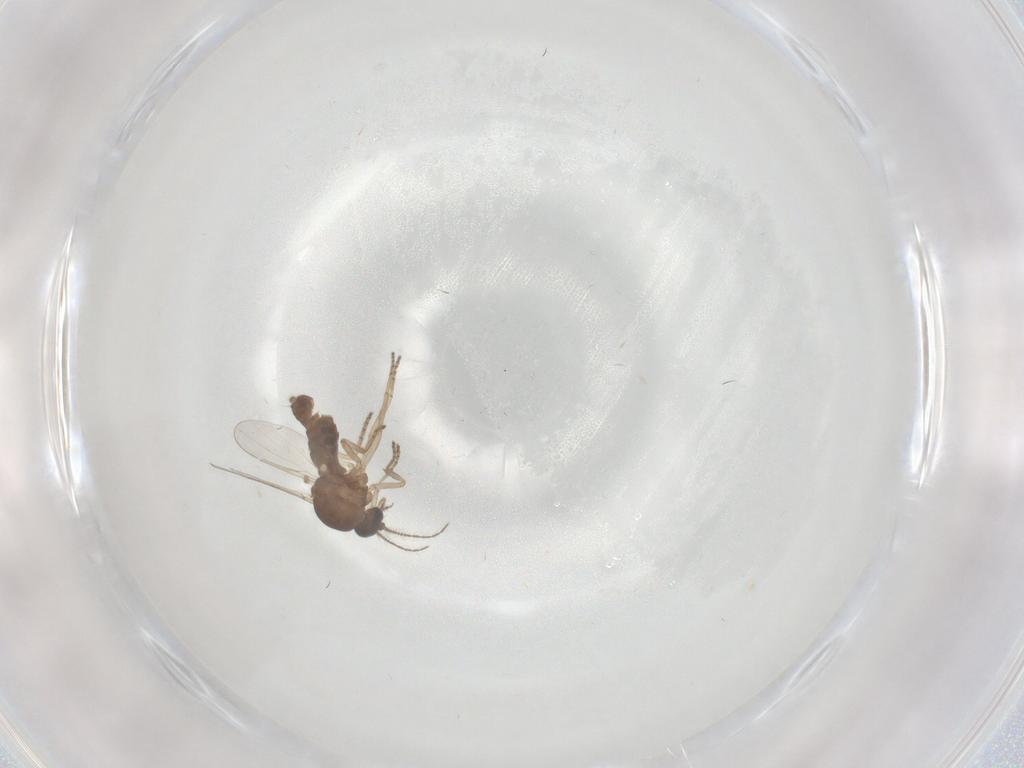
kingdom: Animalia
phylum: Arthropoda
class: Insecta
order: Diptera
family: Ceratopogonidae
